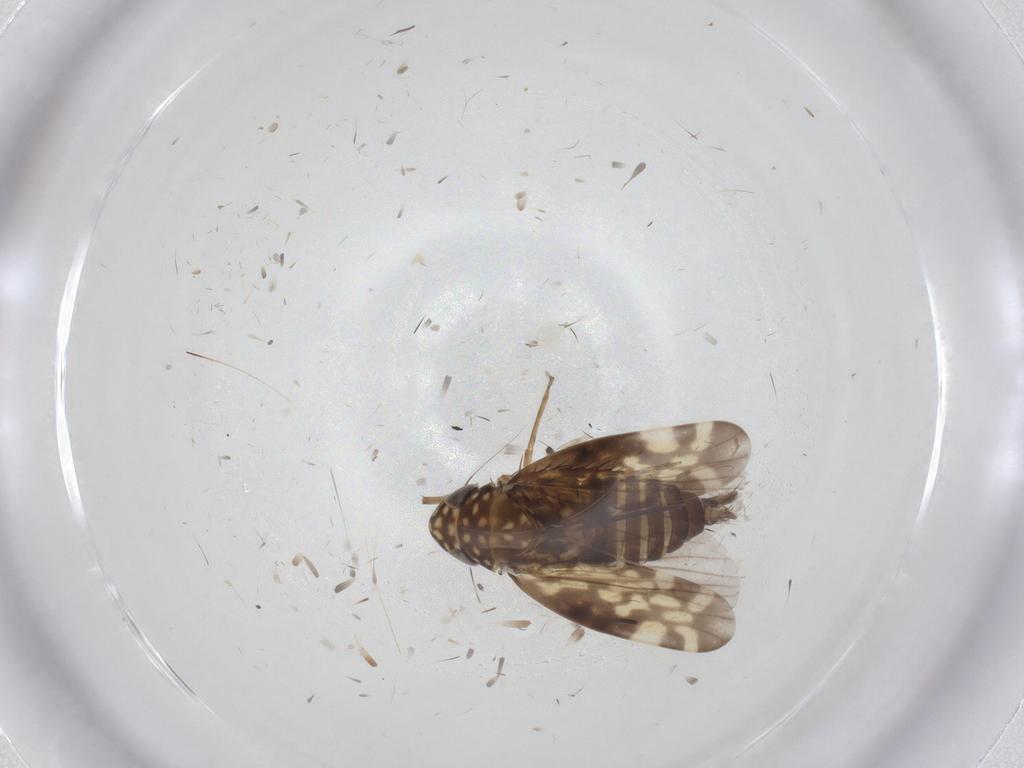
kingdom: Animalia
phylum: Arthropoda
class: Insecta
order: Hemiptera
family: Cicadellidae
